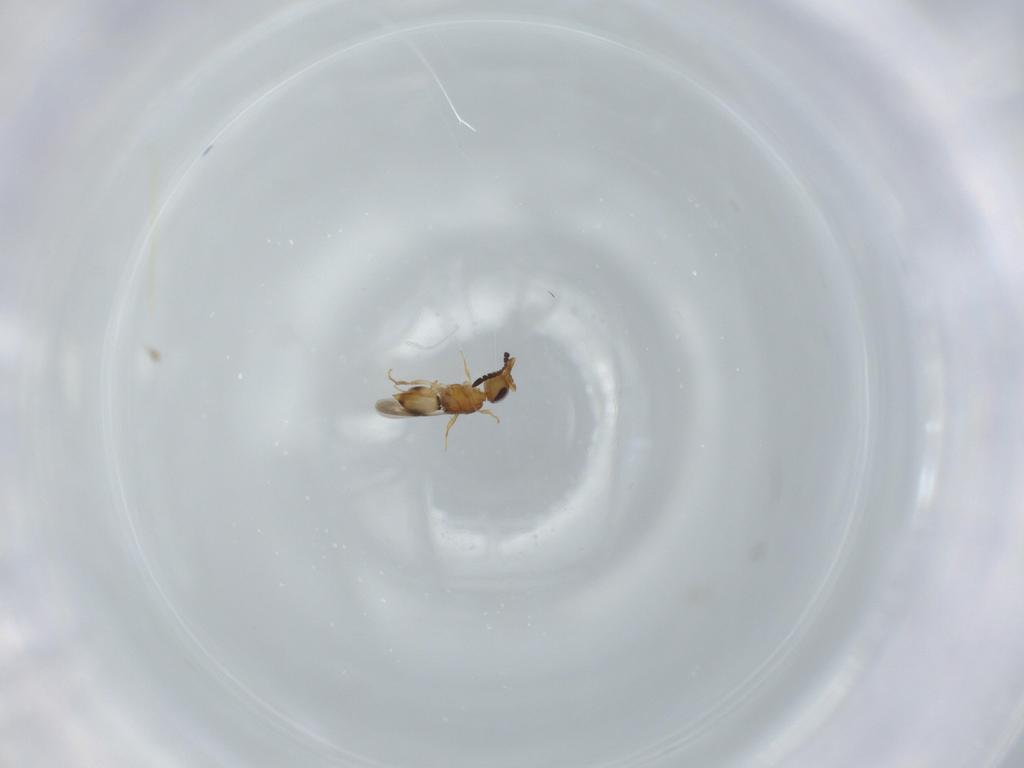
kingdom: Animalia
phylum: Arthropoda
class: Insecta
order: Hymenoptera
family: Ceraphronidae
